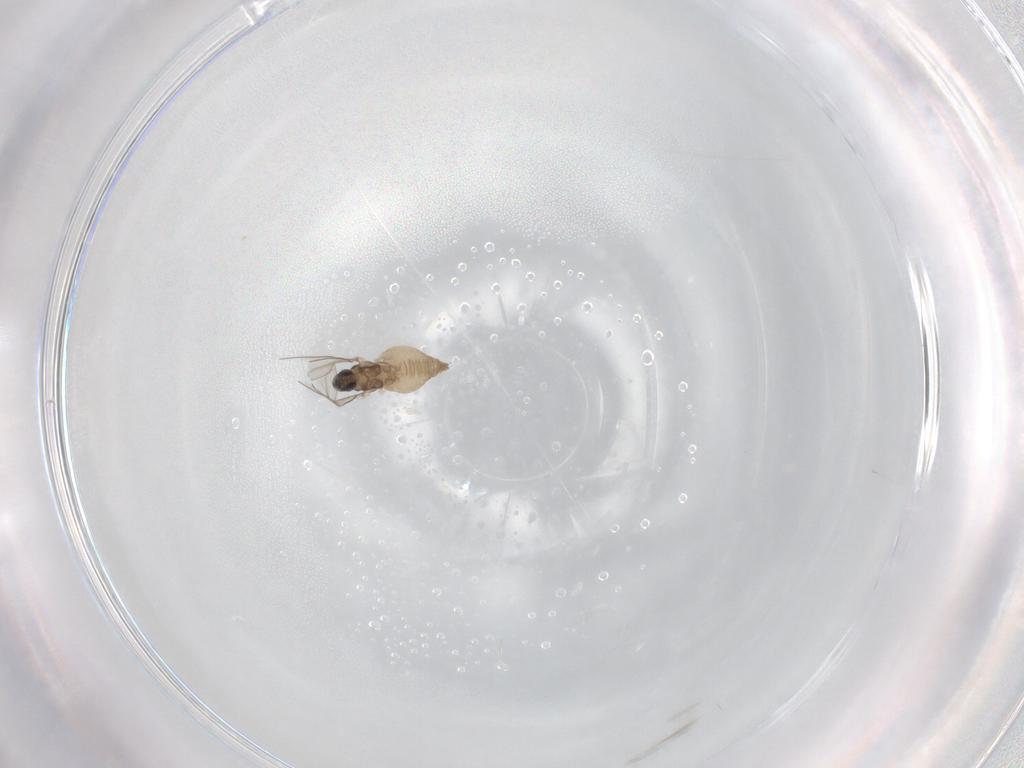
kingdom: Animalia
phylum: Arthropoda
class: Insecta
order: Diptera
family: Cecidomyiidae
